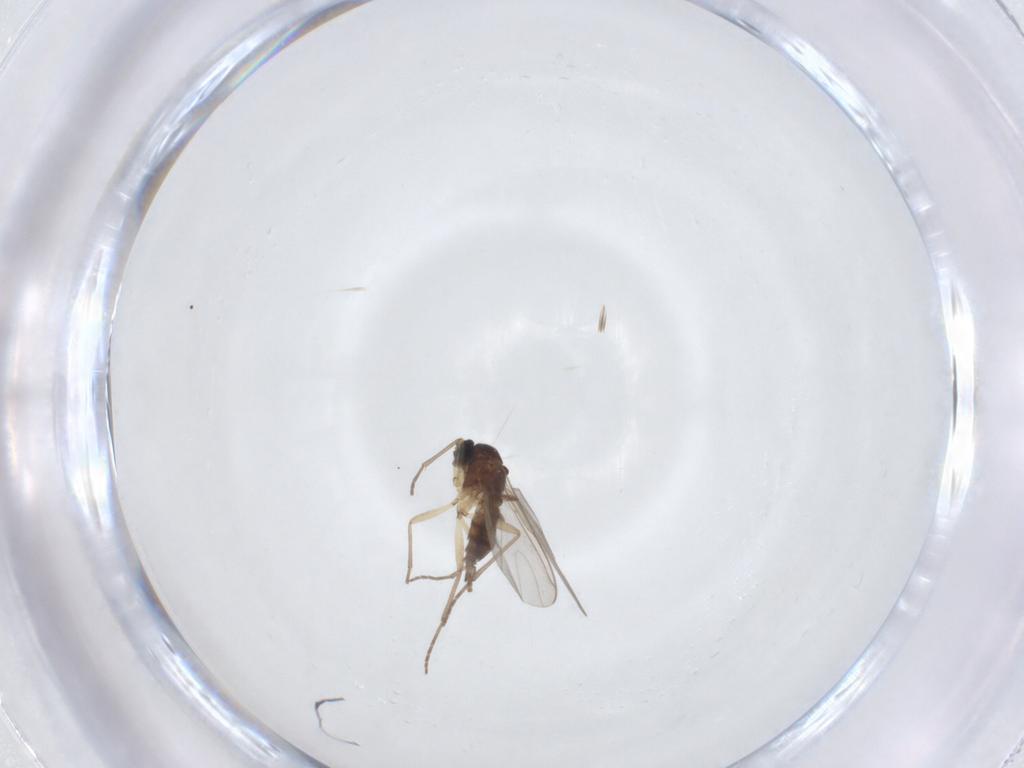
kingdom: Animalia
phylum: Arthropoda
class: Insecta
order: Diptera
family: Sciaridae
